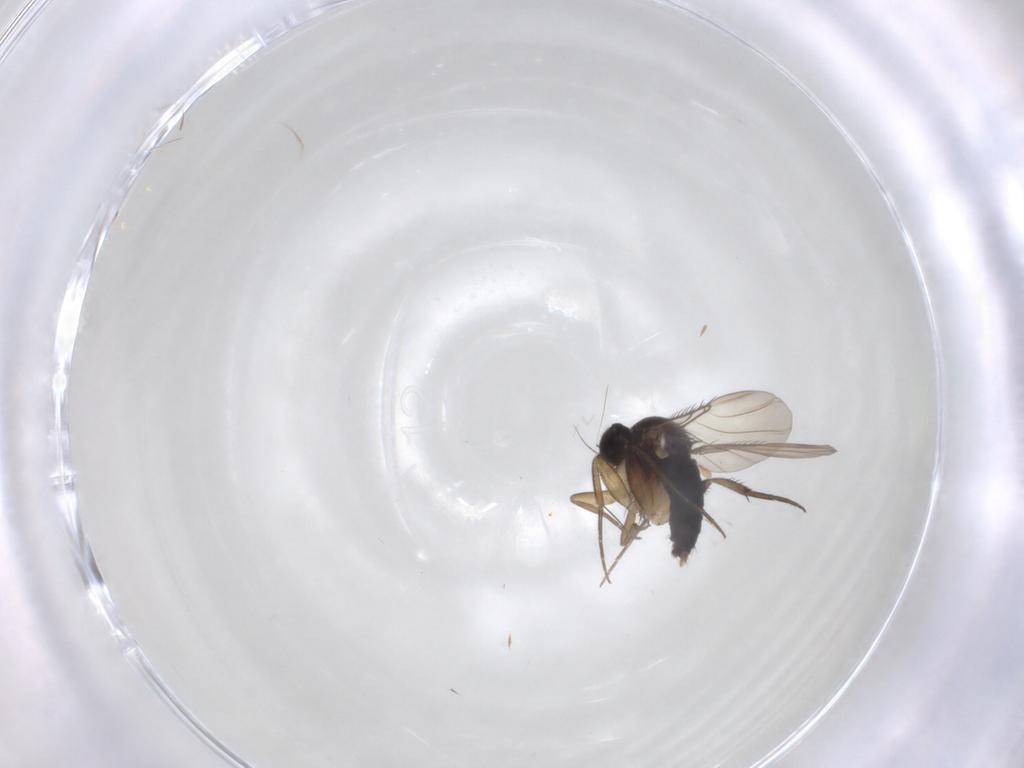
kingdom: Animalia
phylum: Arthropoda
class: Insecta
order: Diptera
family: Phoridae
